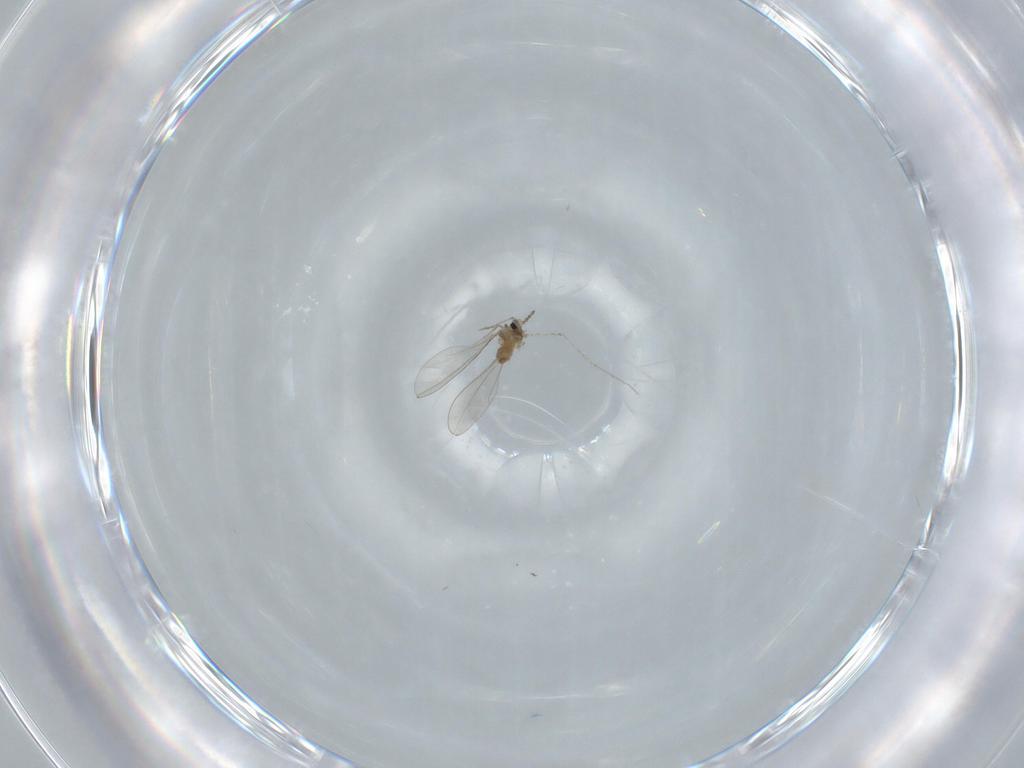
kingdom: Animalia
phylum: Arthropoda
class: Insecta
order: Diptera
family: Cecidomyiidae
